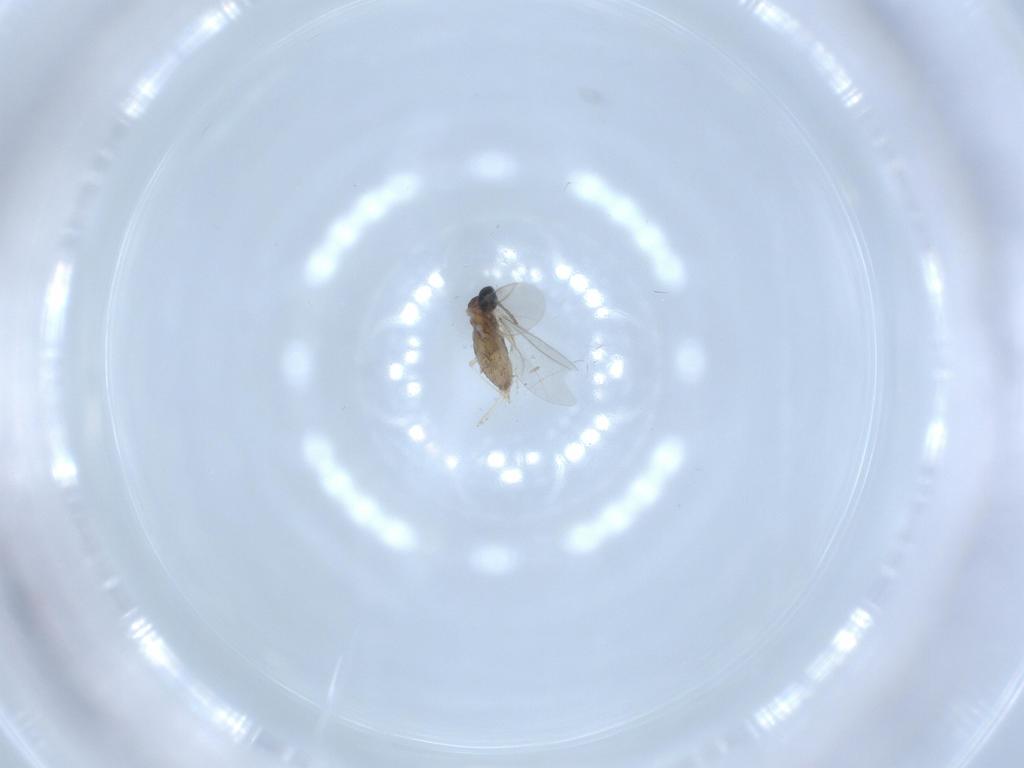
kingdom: Animalia
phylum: Arthropoda
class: Insecta
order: Diptera
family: Cecidomyiidae
